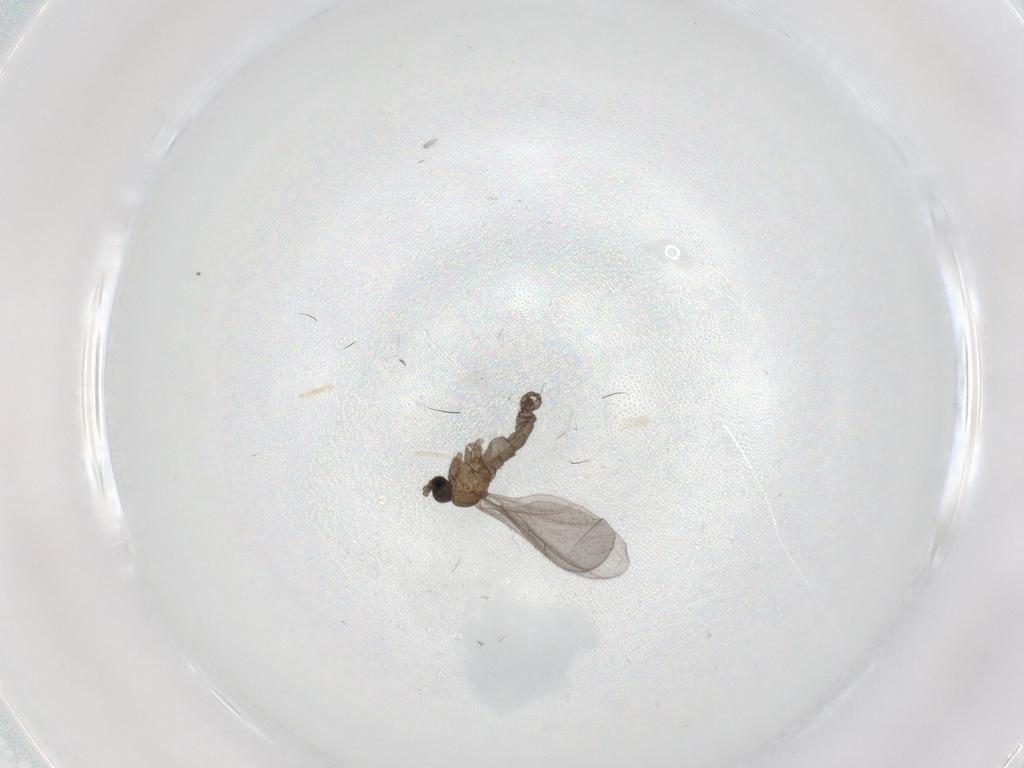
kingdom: Animalia
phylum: Arthropoda
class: Insecta
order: Diptera
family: Sciaridae
